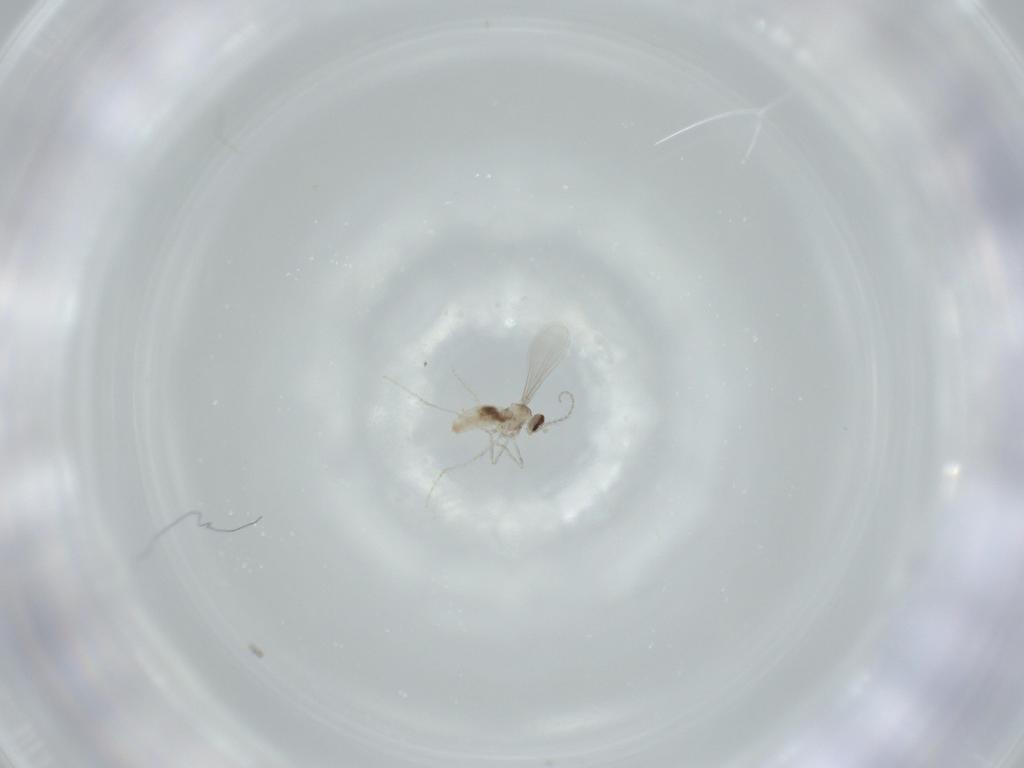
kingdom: Animalia
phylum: Arthropoda
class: Insecta
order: Diptera
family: Cecidomyiidae
